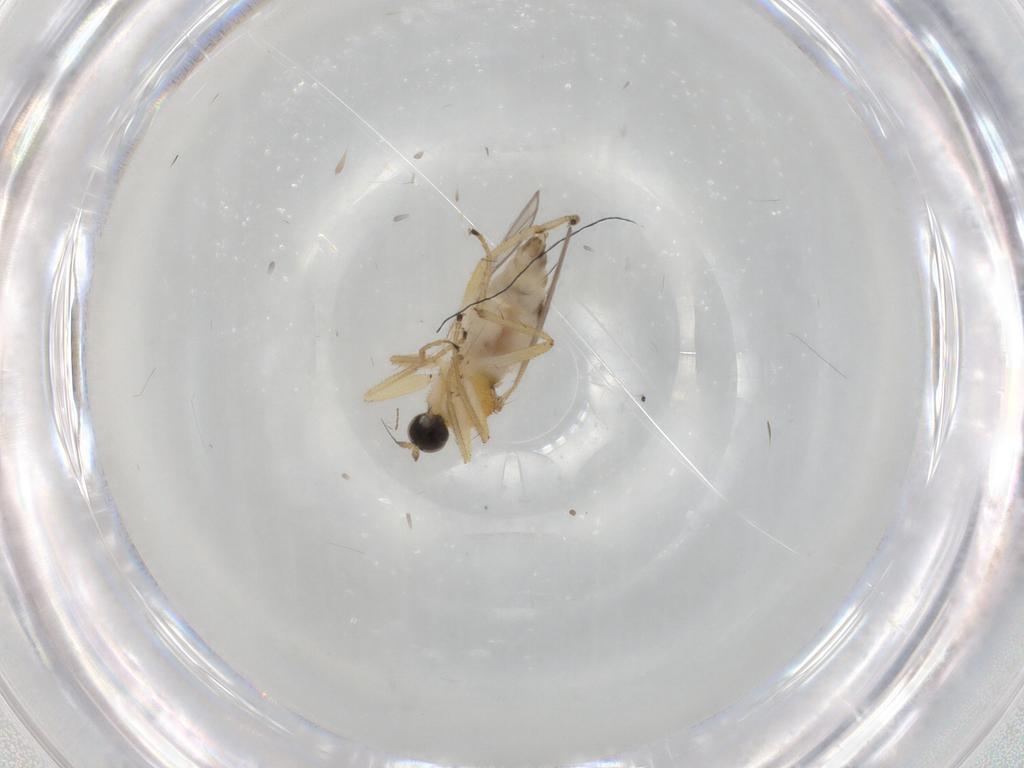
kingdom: Animalia
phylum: Arthropoda
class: Insecta
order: Diptera
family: Hybotidae
